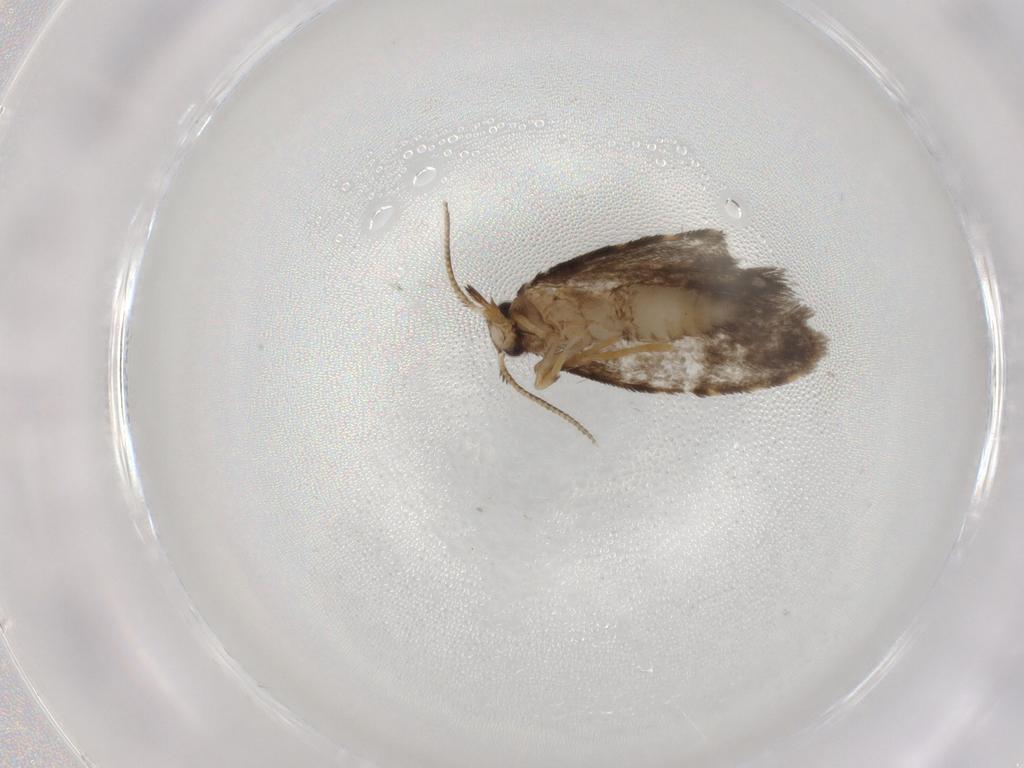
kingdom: Animalia
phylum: Arthropoda
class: Insecta
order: Lepidoptera
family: Psychidae
